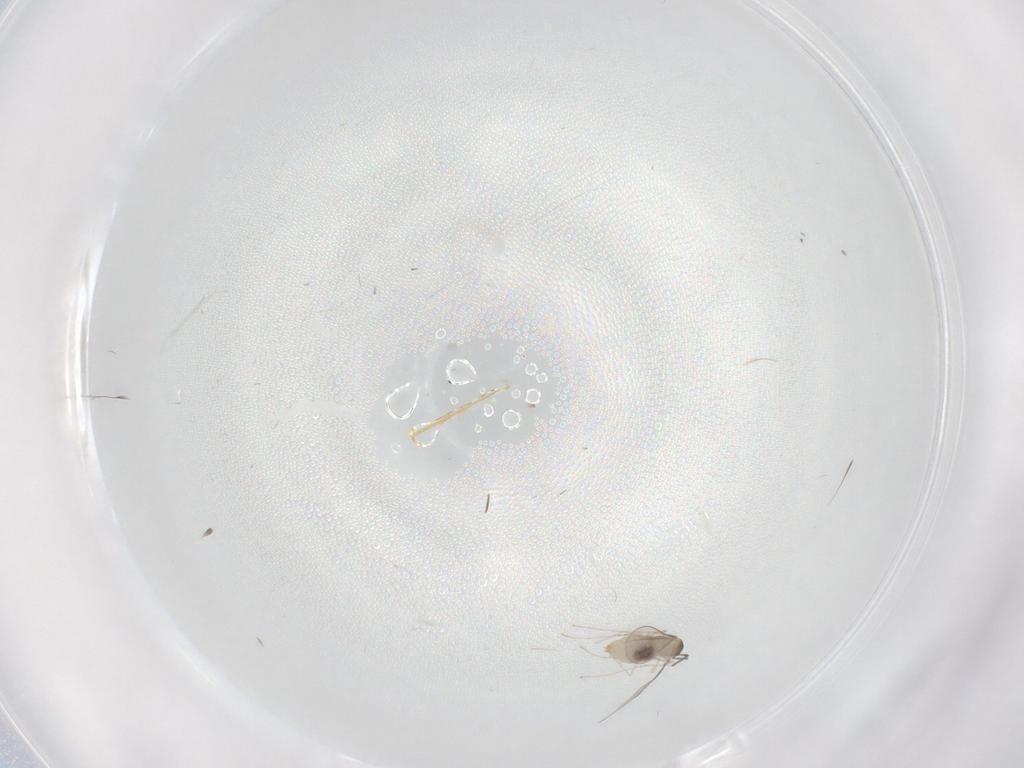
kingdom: Animalia
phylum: Arthropoda
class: Insecta
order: Diptera
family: Cecidomyiidae
